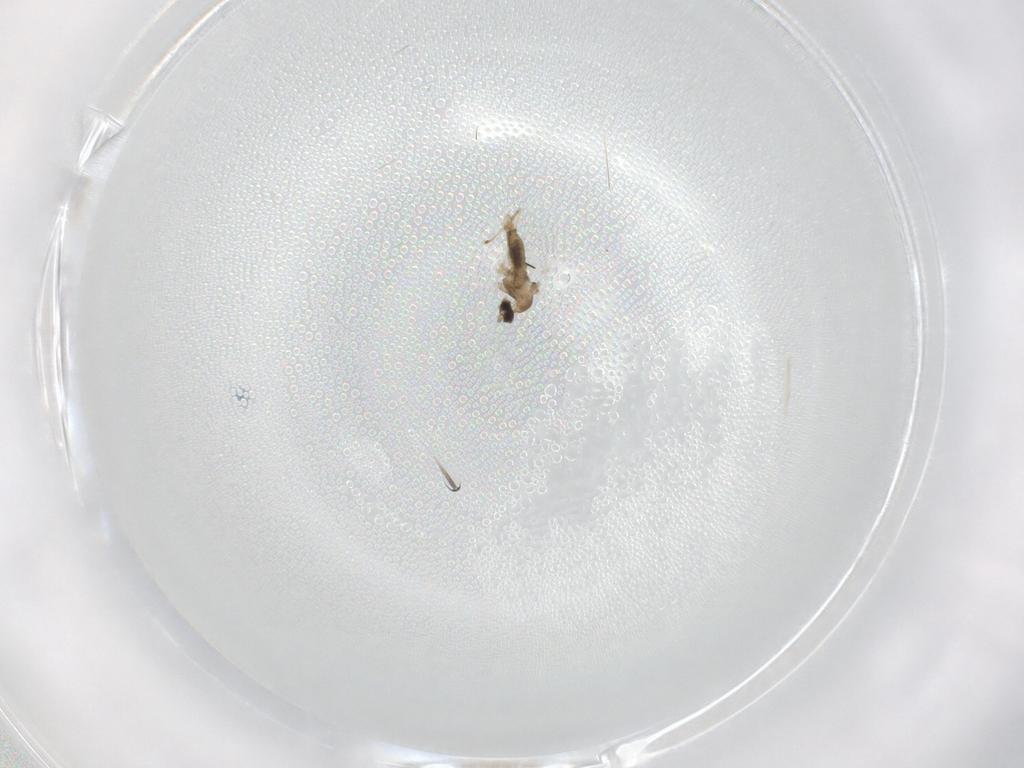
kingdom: Animalia
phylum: Arthropoda
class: Insecta
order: Diptera
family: Chironomidae
